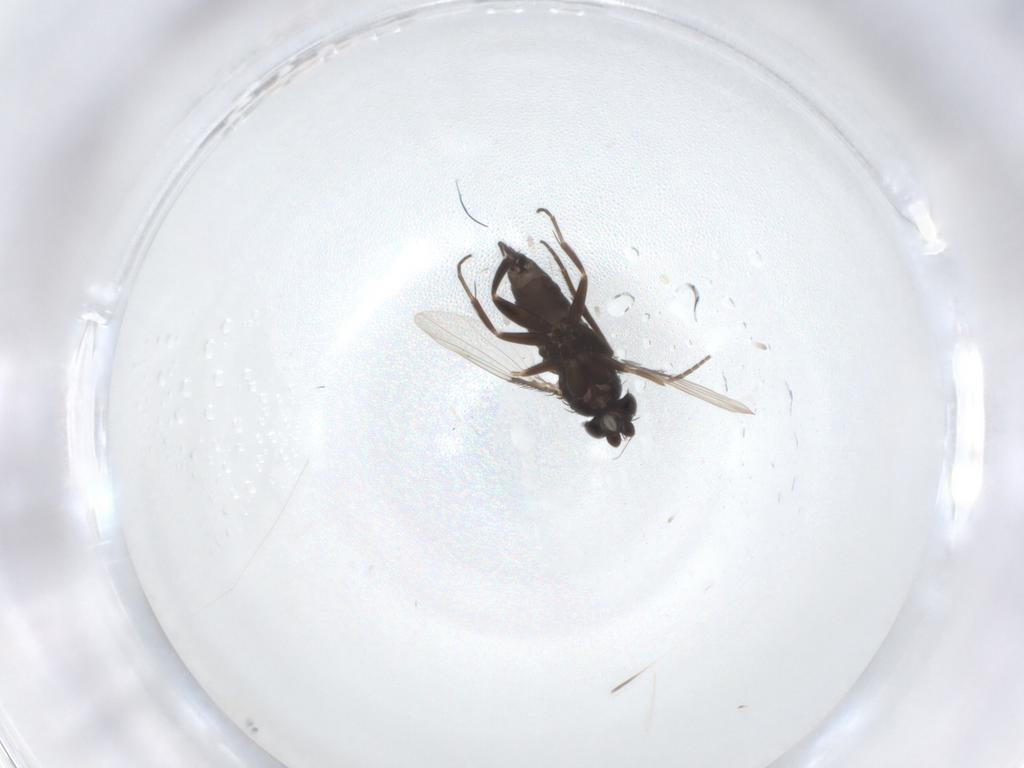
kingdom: Animalia
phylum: Arthropoda
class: Insecta
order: Diptera
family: Phoridae
